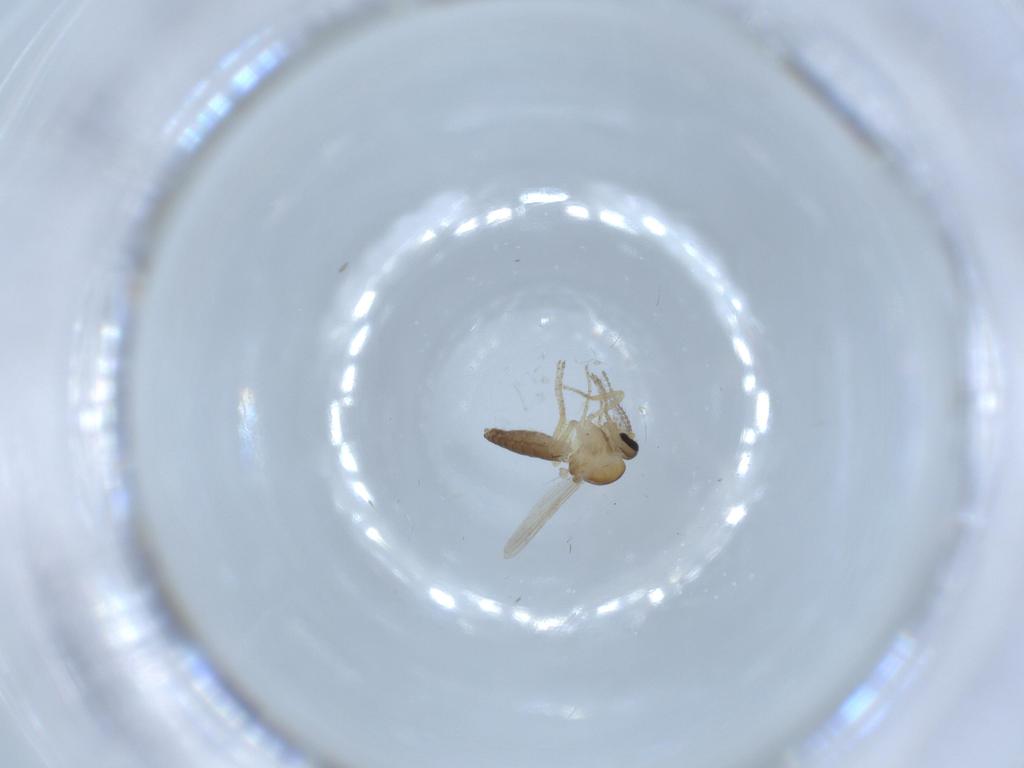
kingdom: Animalia
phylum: Arthropoda
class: Insecta
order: Diptera
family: Ceratopogonidae
